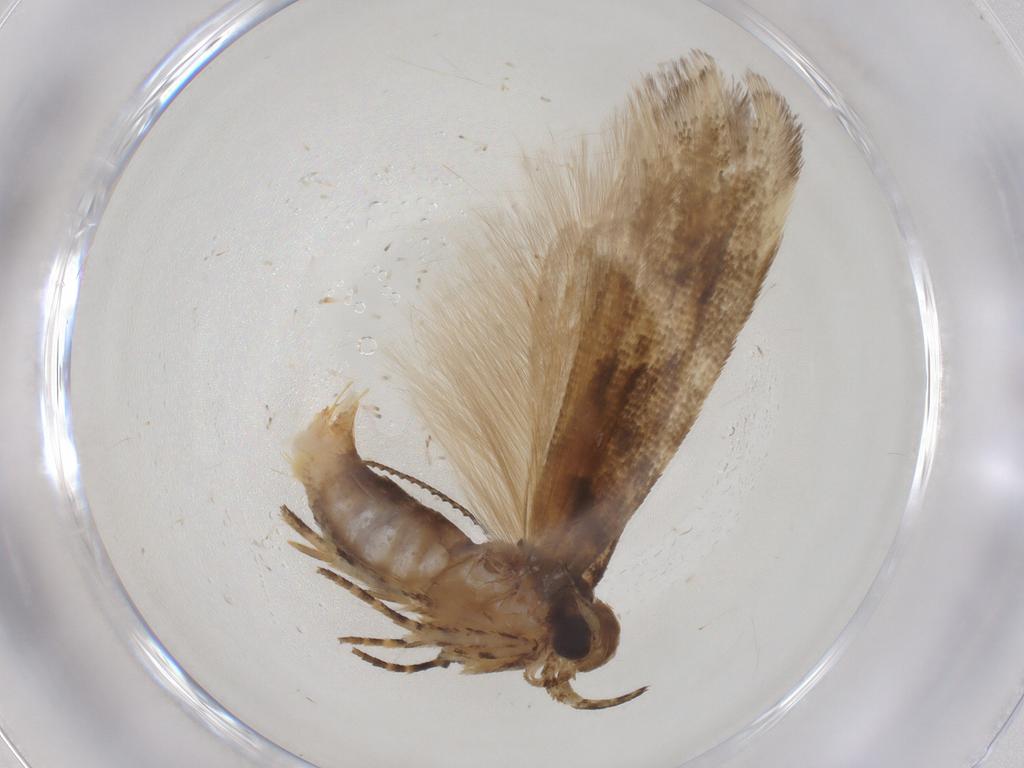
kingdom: Animalia
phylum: Arthropoda
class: Insecta
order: Lepidoptera
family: Gelechiidae
